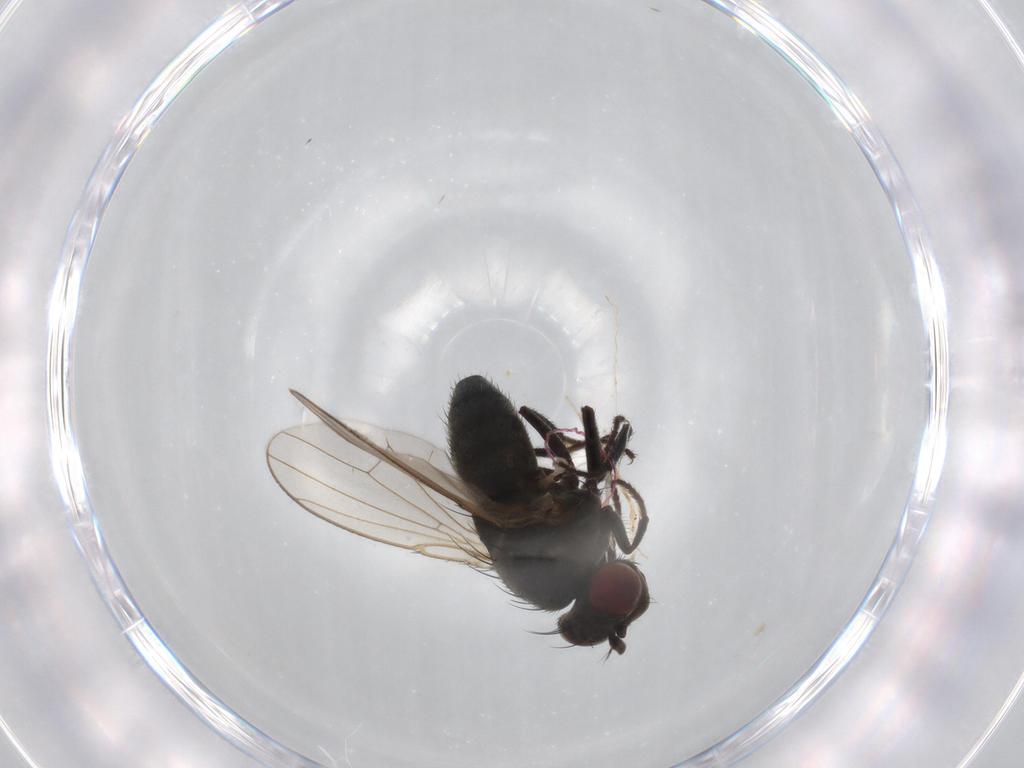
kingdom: Animalia
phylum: Arthropoda
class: Insecta
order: Diptera
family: Ephydridae
